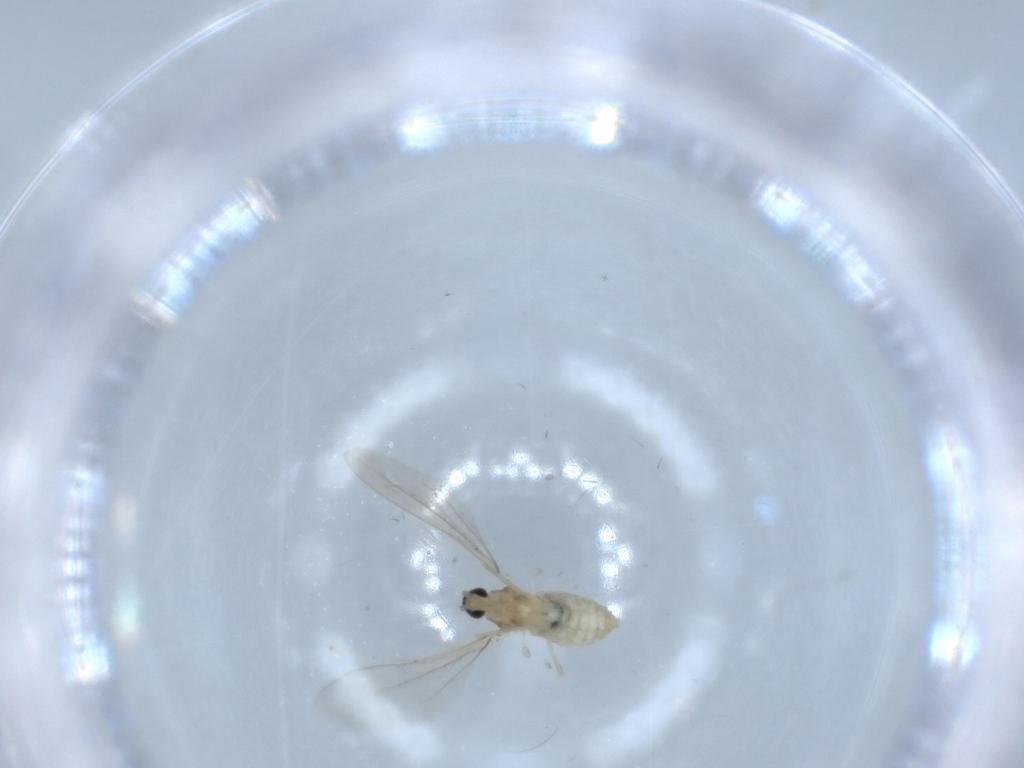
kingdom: Animalia
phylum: Arthropoda
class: Insecta
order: Diptera
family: Cecidomyiidae
